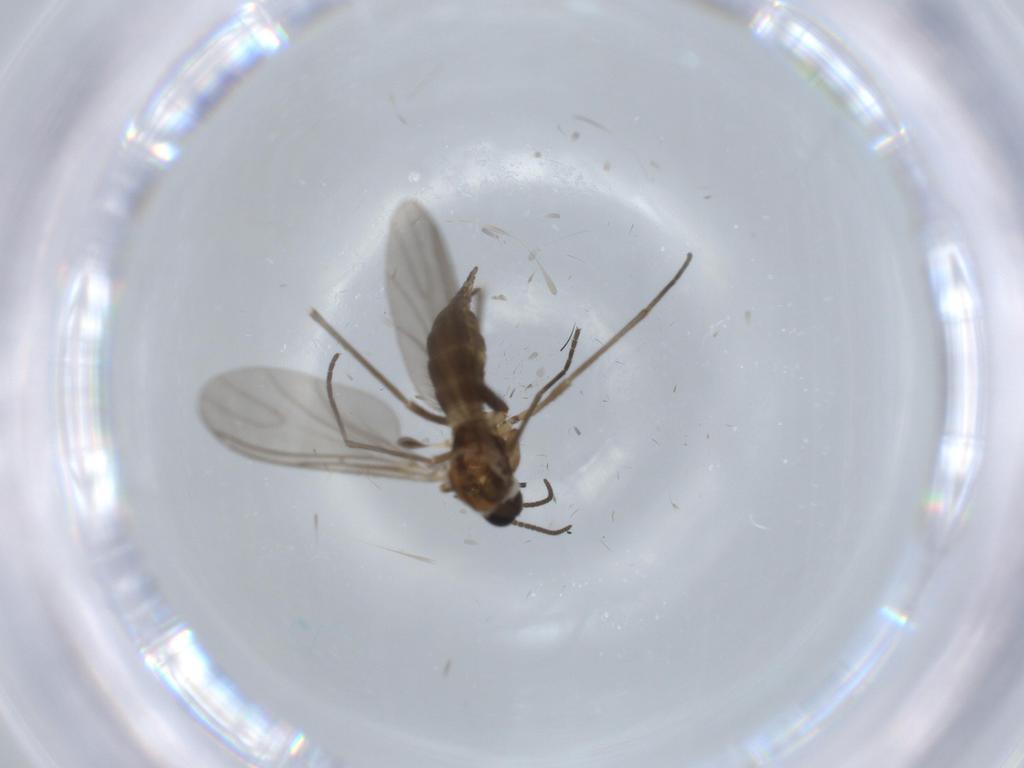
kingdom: Animalia
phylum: Arthropoda
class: Insecta
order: Diptera
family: Sciaridae
